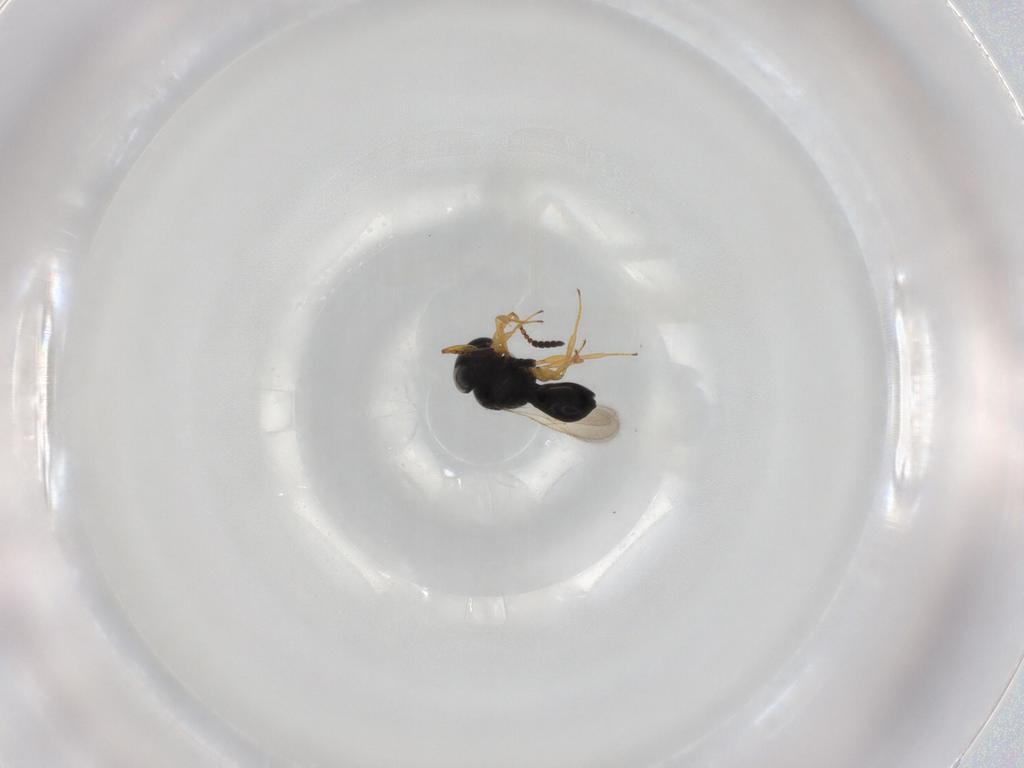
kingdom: Animalia
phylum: Arthropoda
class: Insecta
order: Hymenoptera
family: Scelionidae
